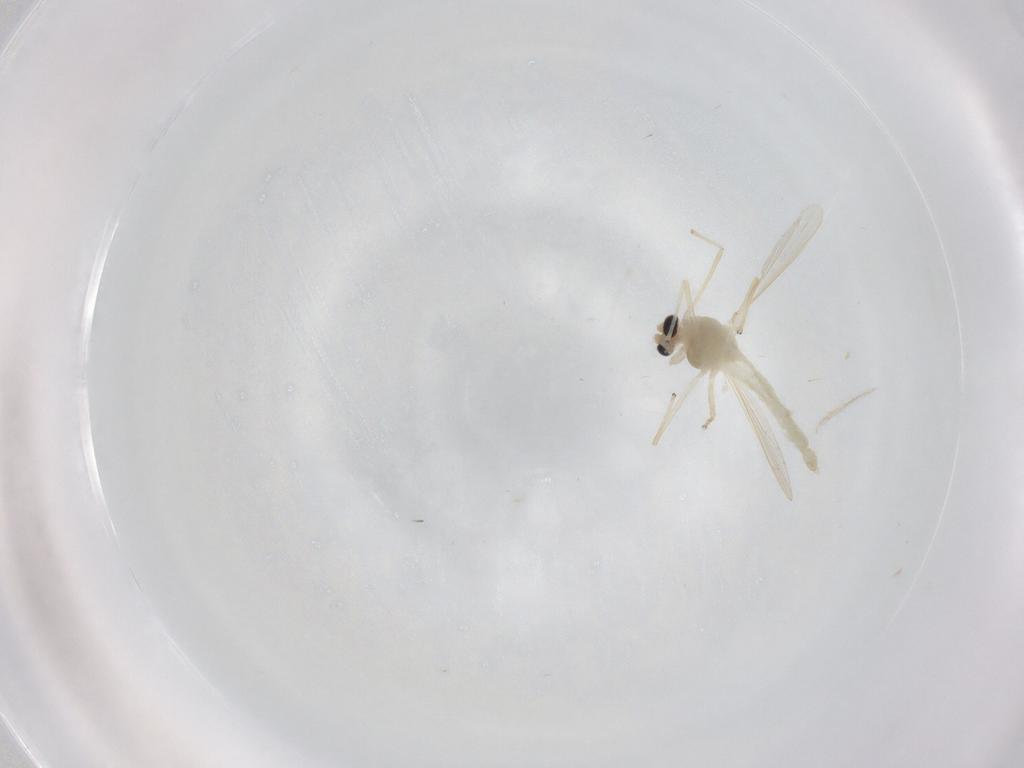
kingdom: Animalia
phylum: Arthropoda
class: Insecta
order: Diptera
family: Chironomidae
